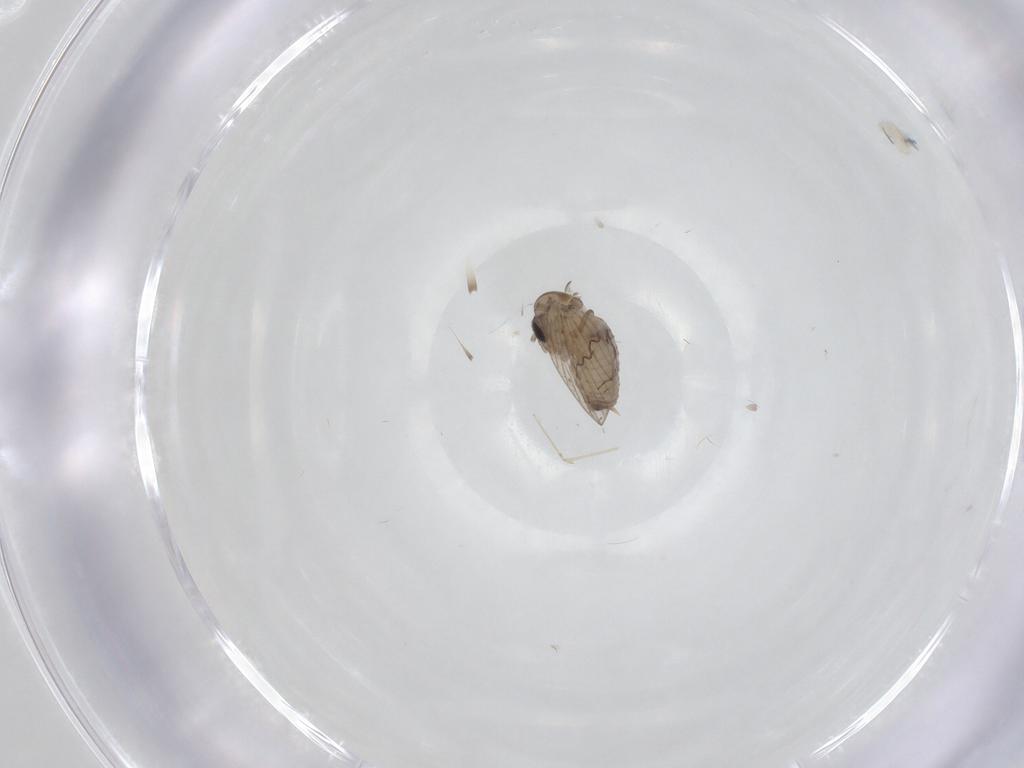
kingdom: Animalia
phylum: Arthropoda
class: Insecta
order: Diptera
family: Psychodidae
